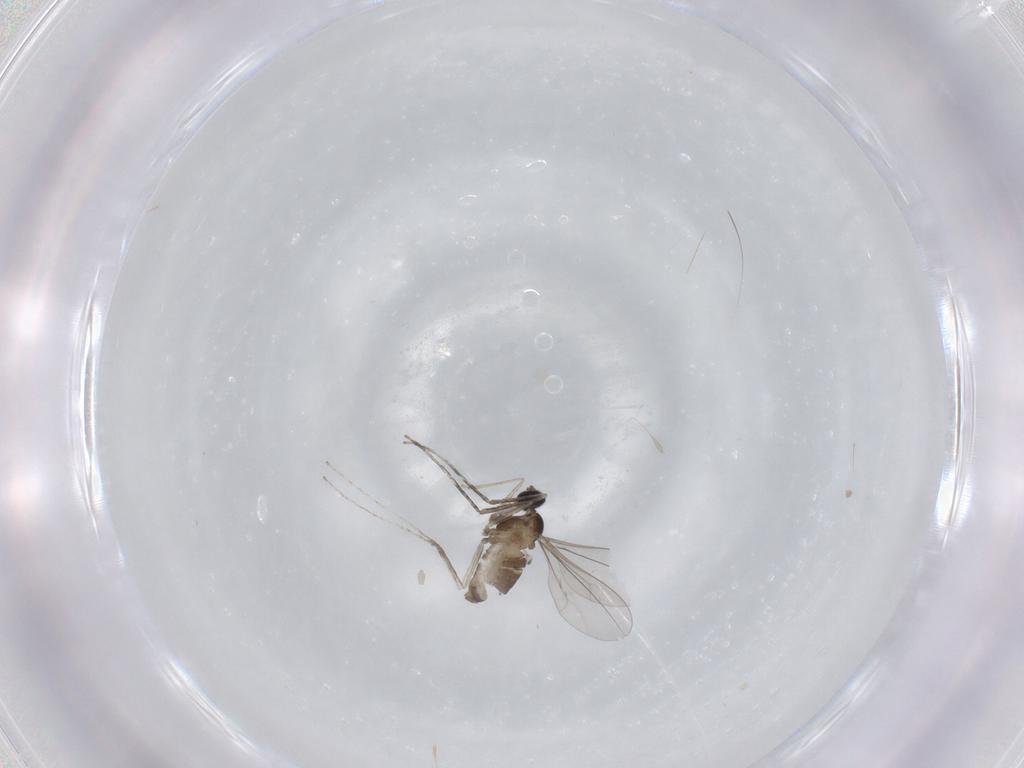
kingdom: Animalia
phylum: Arthropoda
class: Insecta
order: Diptera
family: Cecidomyiidae
